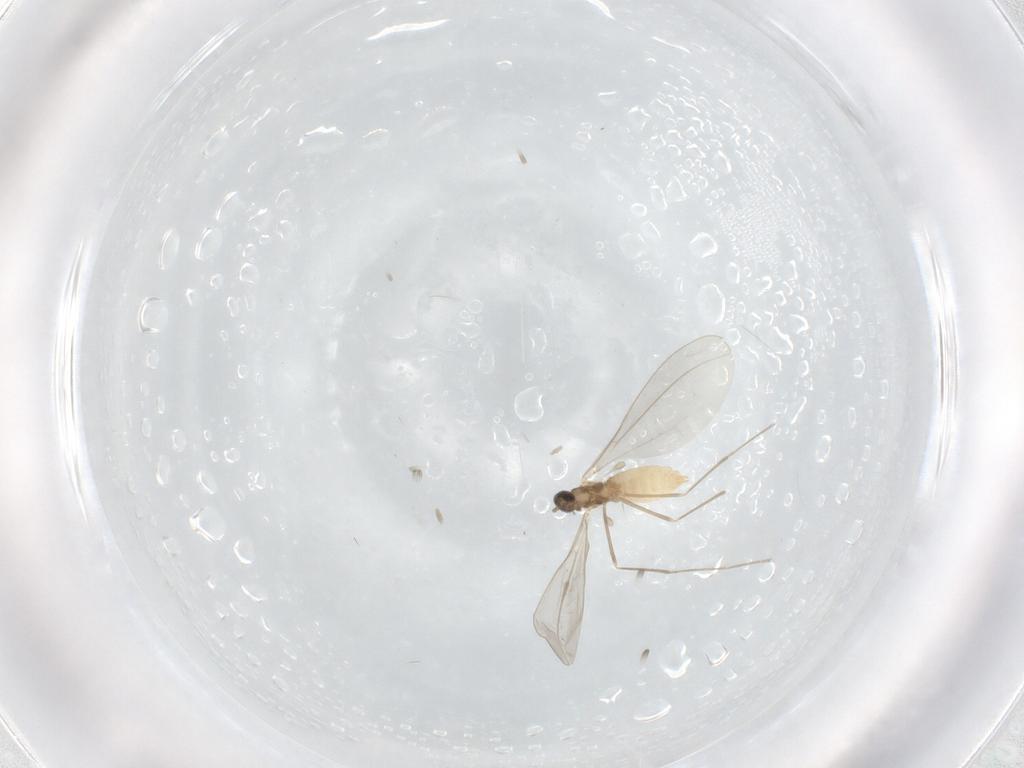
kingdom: Animalia
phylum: Arthropoda
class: Insecta
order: Diptera
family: Cecidomyiidae
